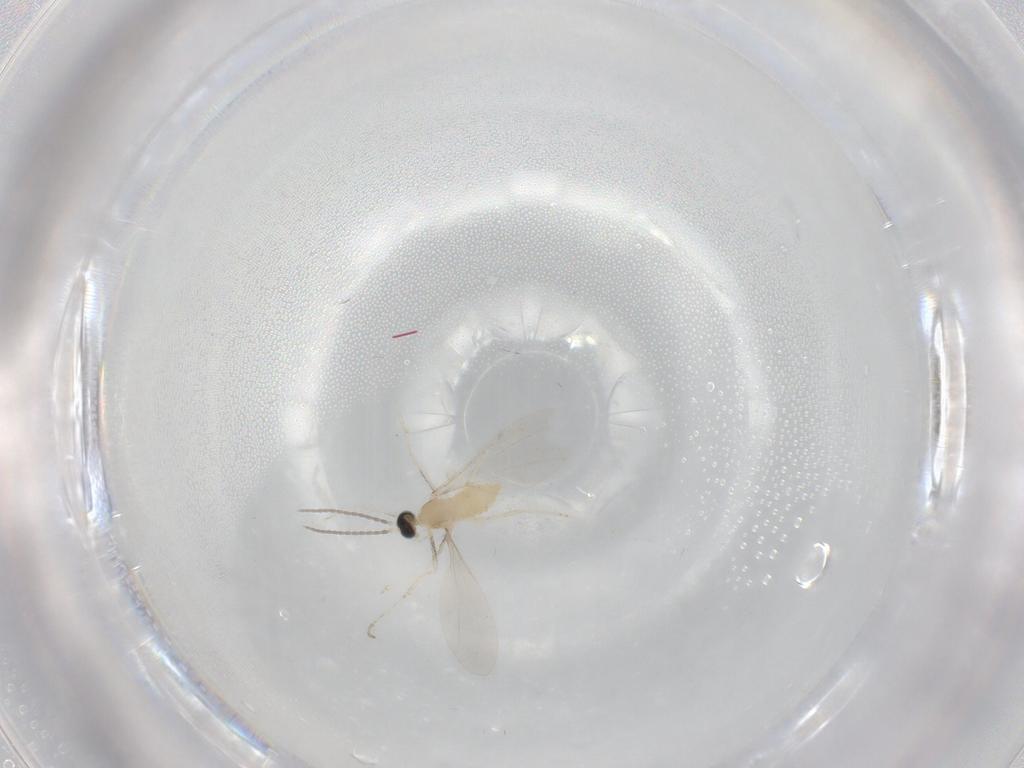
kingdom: Animalia
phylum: Arthropoda
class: Insecta
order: Diptera
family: Cecidomyiidae
